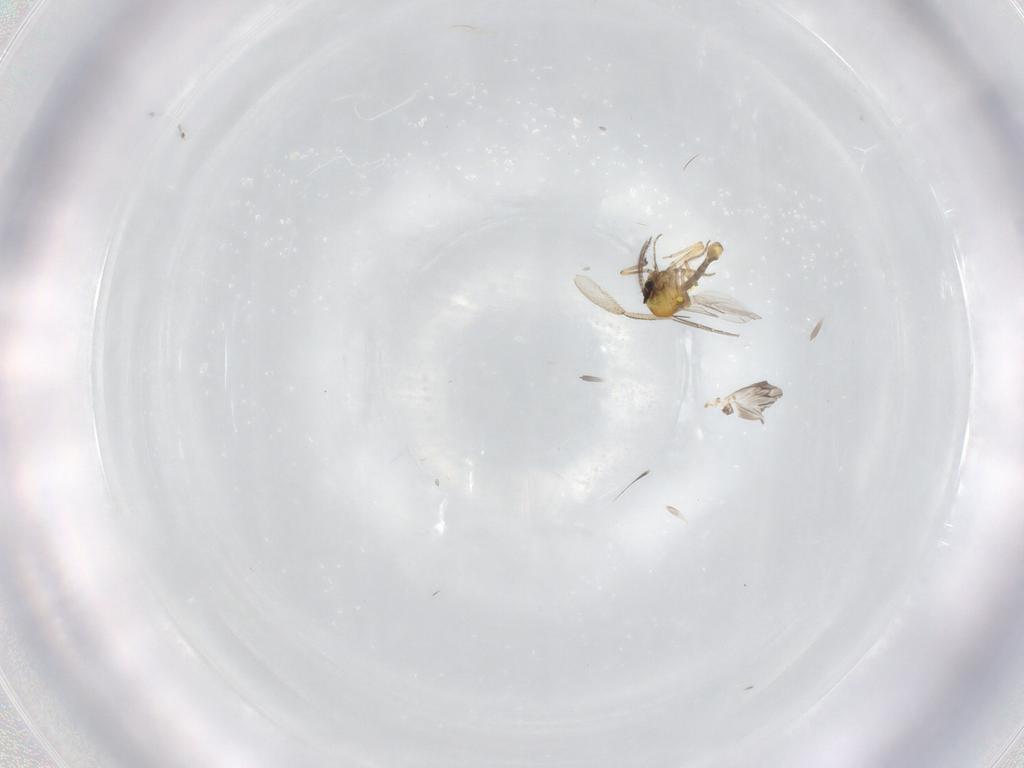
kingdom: Animalia
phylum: Arthropoda
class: Insecta
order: Diptera
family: Ceratopogonidae
